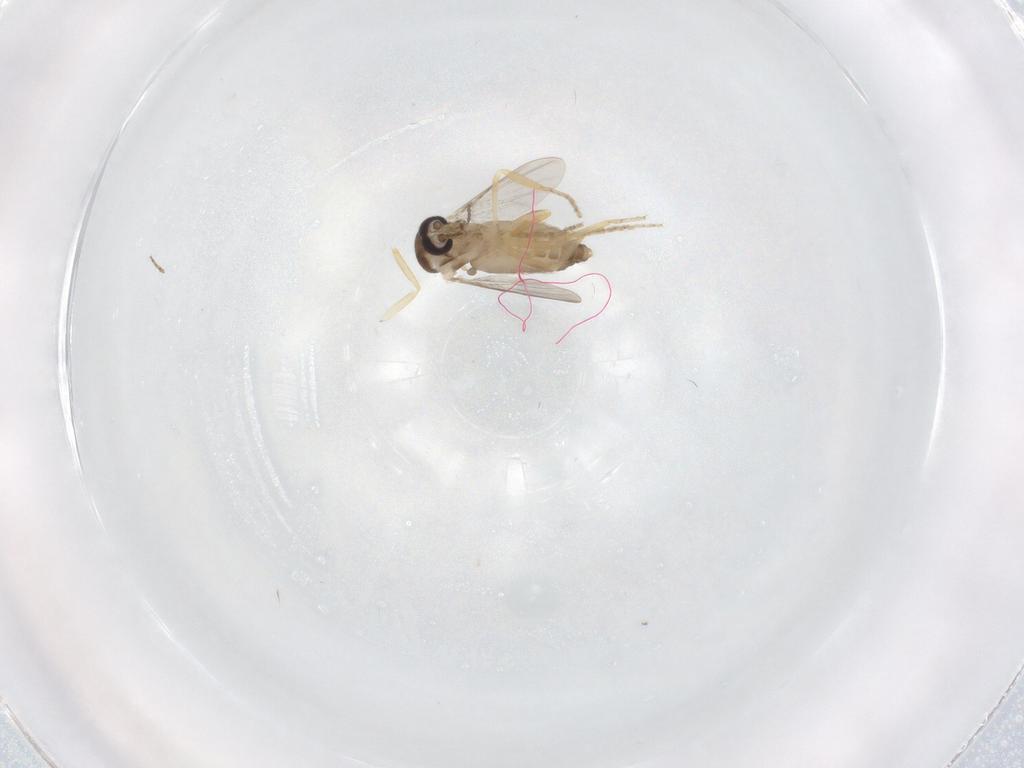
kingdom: Animalia
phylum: Arthropoda
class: Insecta
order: Diptera
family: Ceratopogonidae
